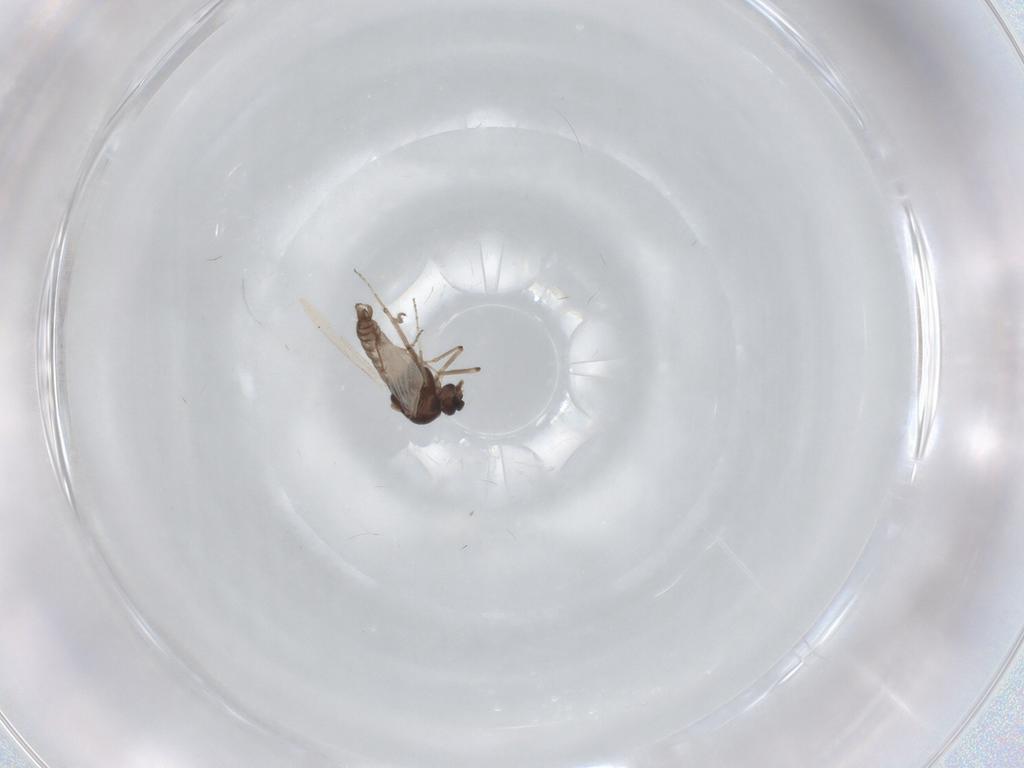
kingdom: Animalia
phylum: Arthropoda
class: Insecta
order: Diptera
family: Ceratopogonidae
